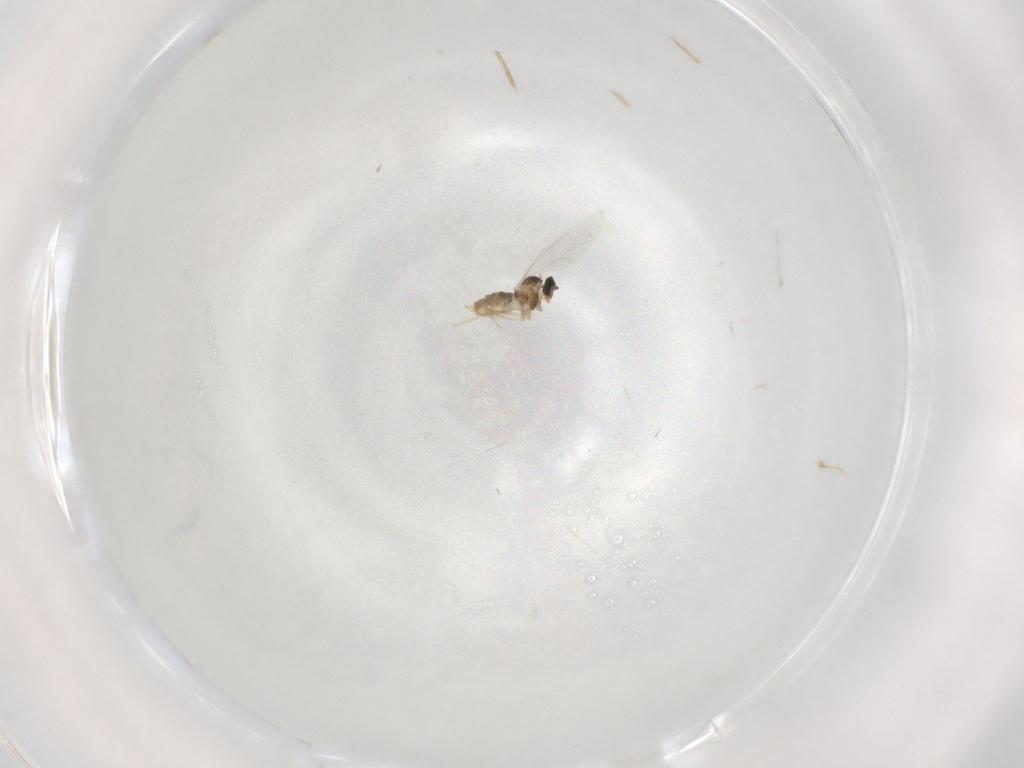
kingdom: Animalia
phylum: Arthropoda
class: Insecta
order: Diptera
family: Cecidomyiidae
